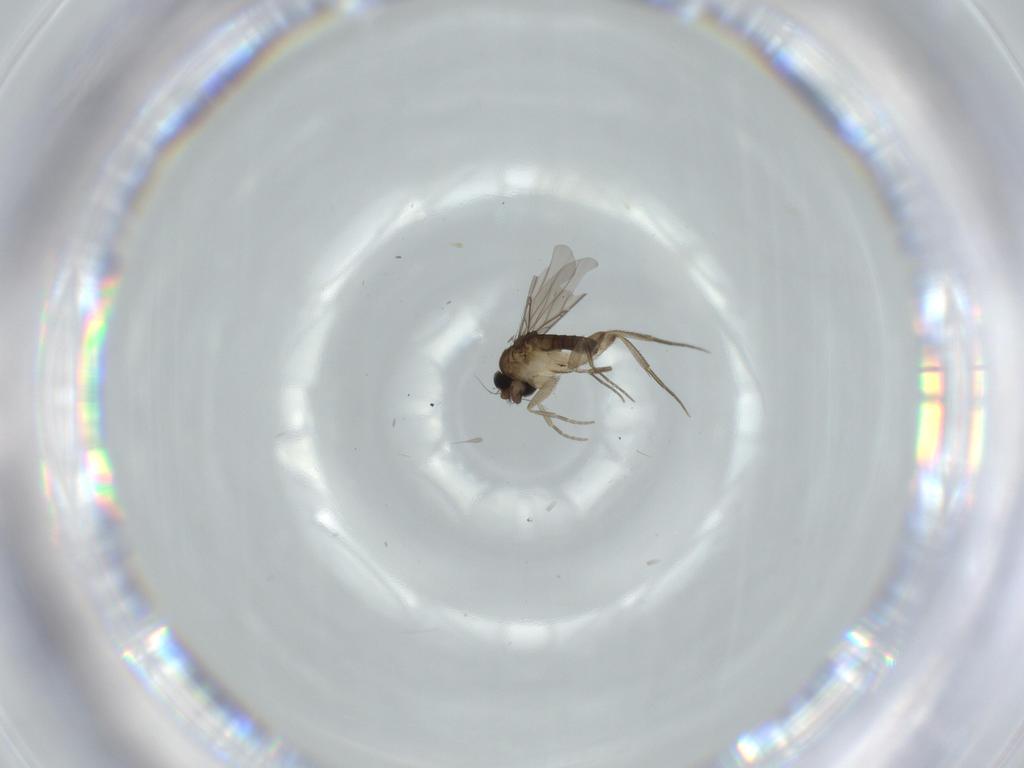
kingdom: Animalia
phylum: Arthropoda
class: Insecta
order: Diptera
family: Phoridae
